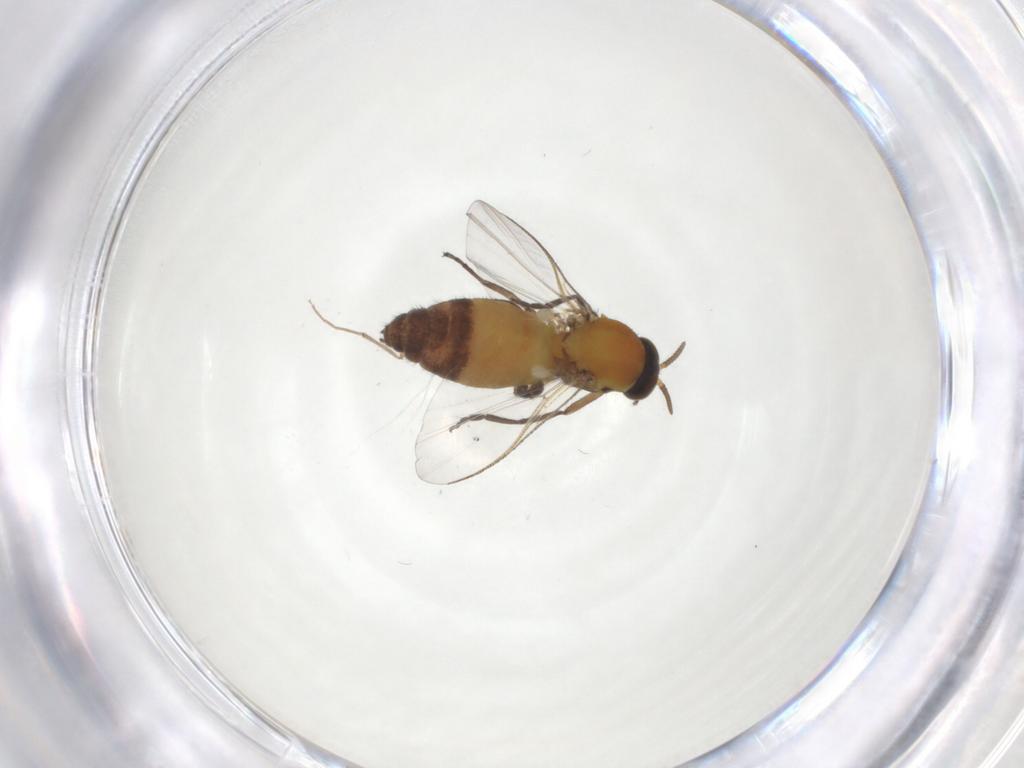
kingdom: Animalia
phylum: Arthropoda
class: Insecta
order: Diptera
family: Simuliidae
